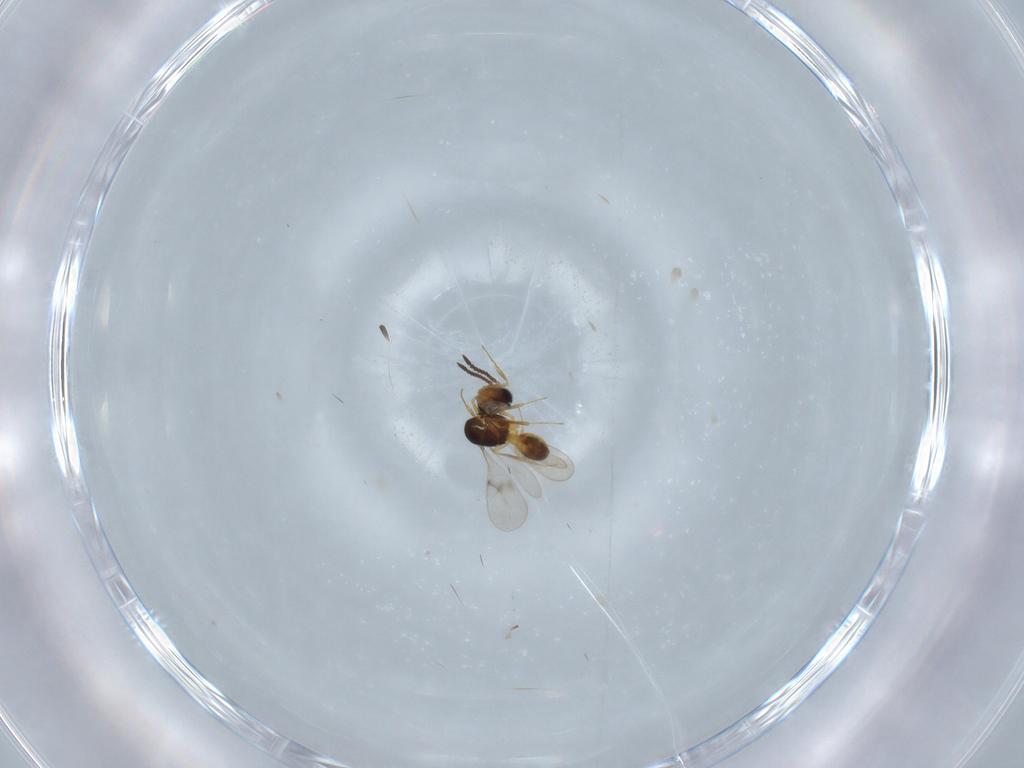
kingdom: Animalia
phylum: Arthropoda
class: Insecta
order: Hymenoptera
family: Scelionidae
